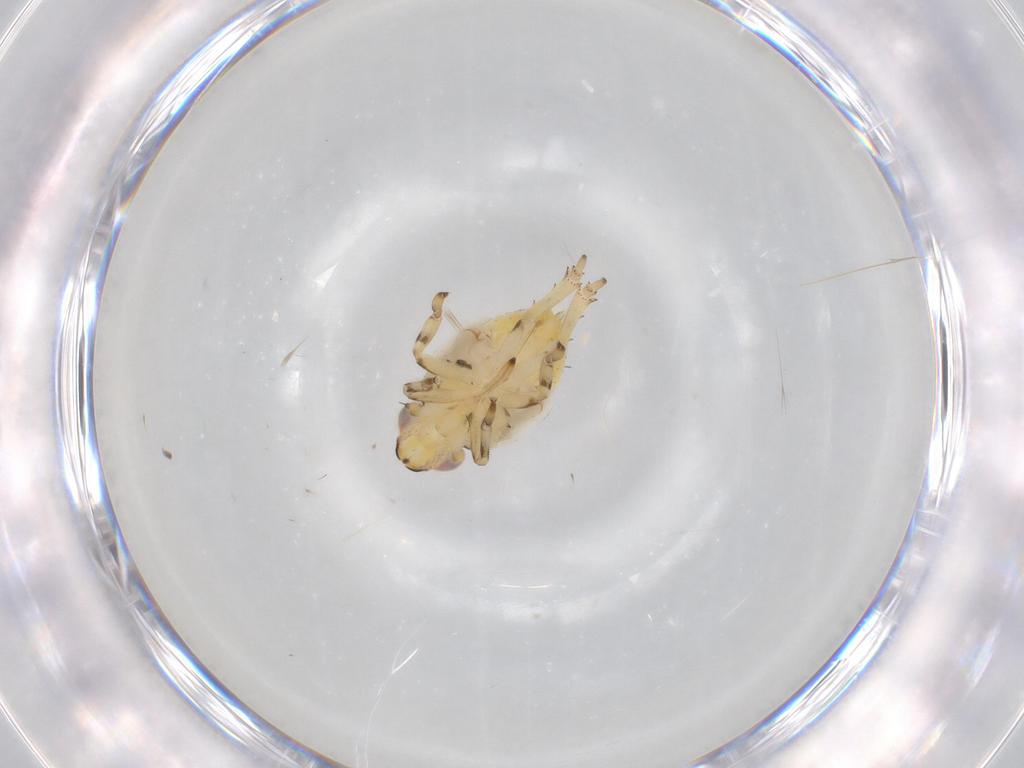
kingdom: Animalia
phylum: Arthropoda
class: Insecta
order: Hemiptera
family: Issidae
